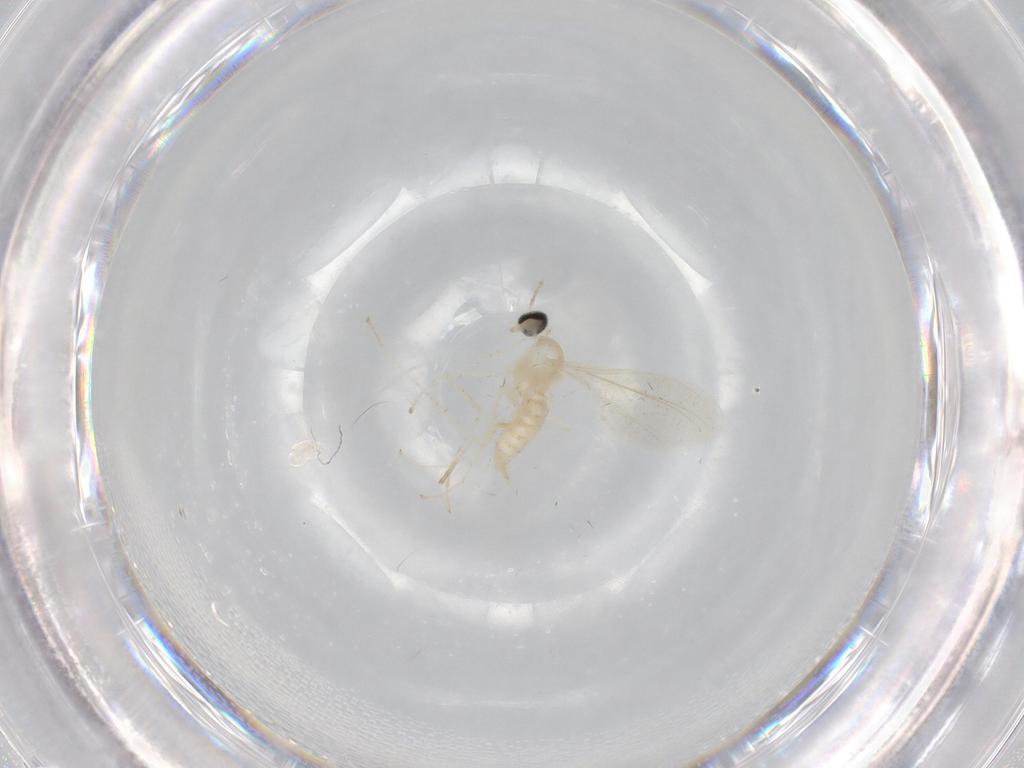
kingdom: Animalia
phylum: Arthropoda
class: Insecta
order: Diptera
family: Cecidomyiidae
